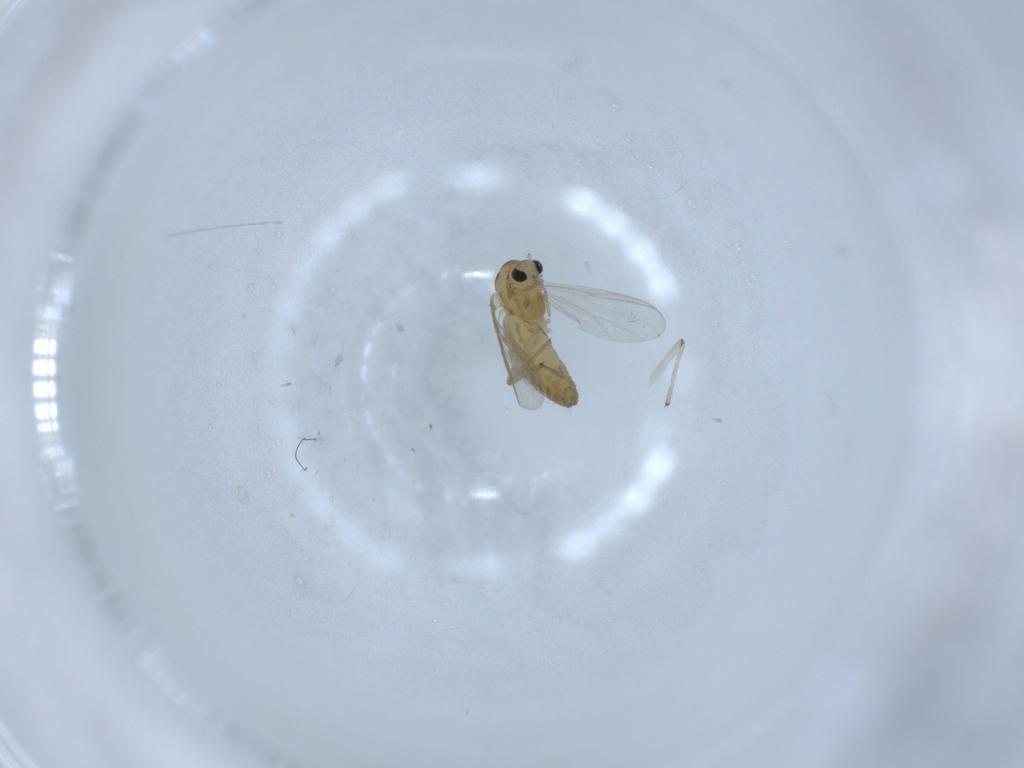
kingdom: Animalia
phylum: Arthropoda
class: Insecta
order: Diptera
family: Chironomidae
